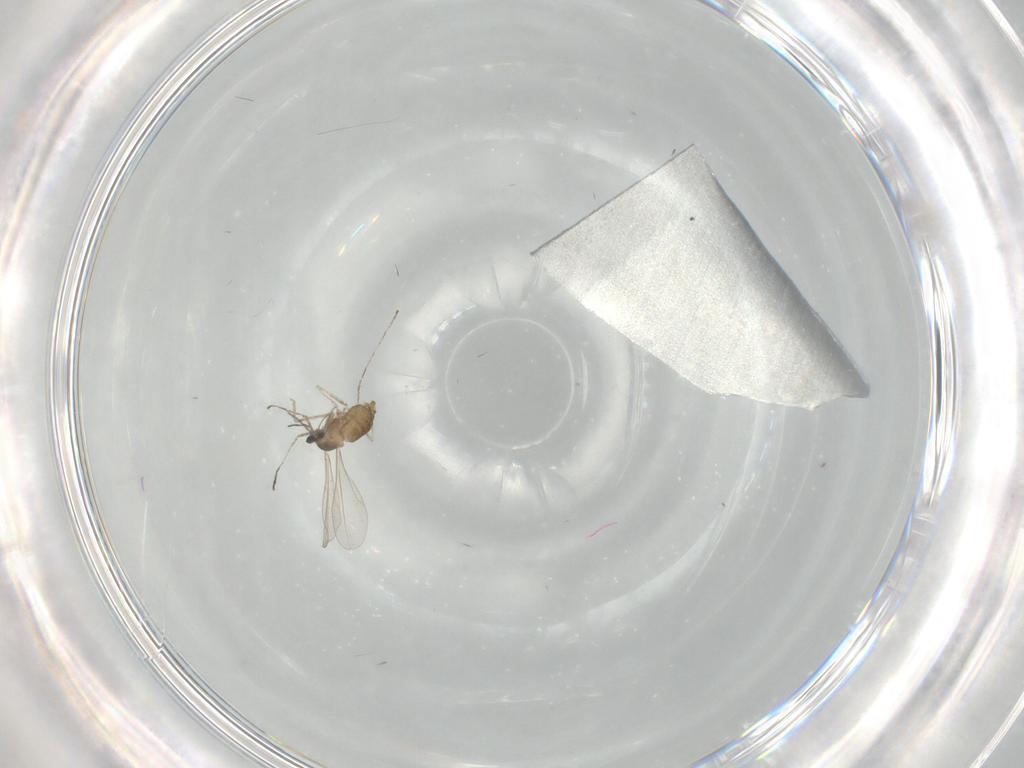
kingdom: Animalia
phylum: Arthropoda
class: Insecta
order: Diptera
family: Cecidomyiidae
